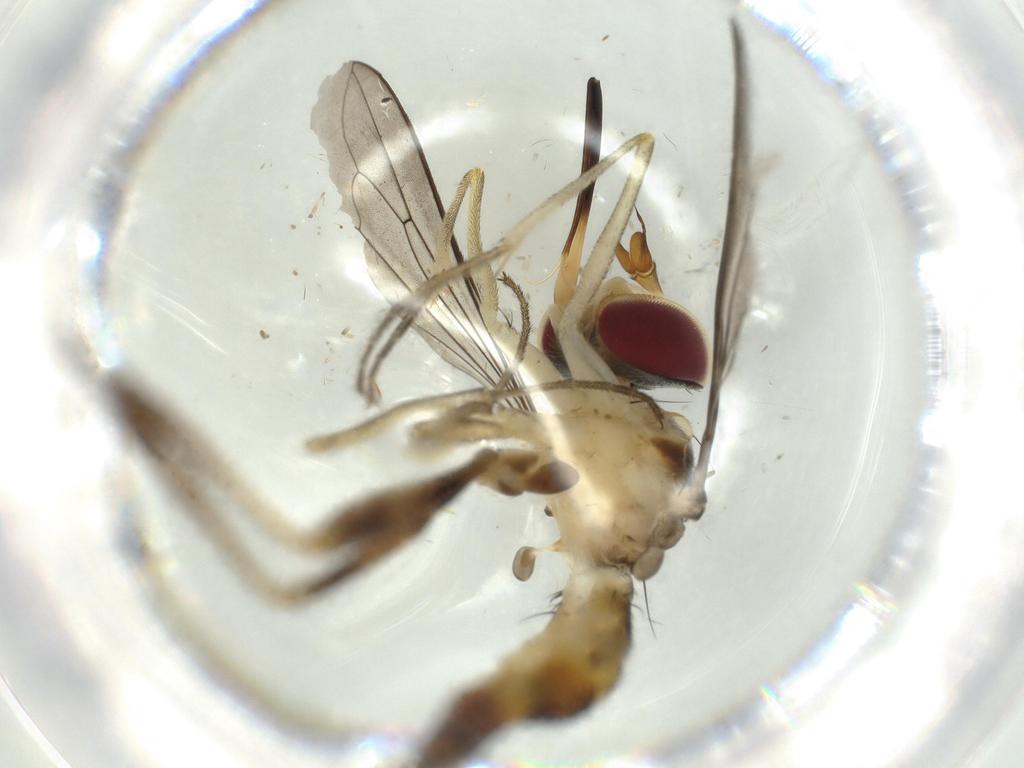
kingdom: Animalia
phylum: Arthropoda
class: Insecta
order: Diptera
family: Conopidae
